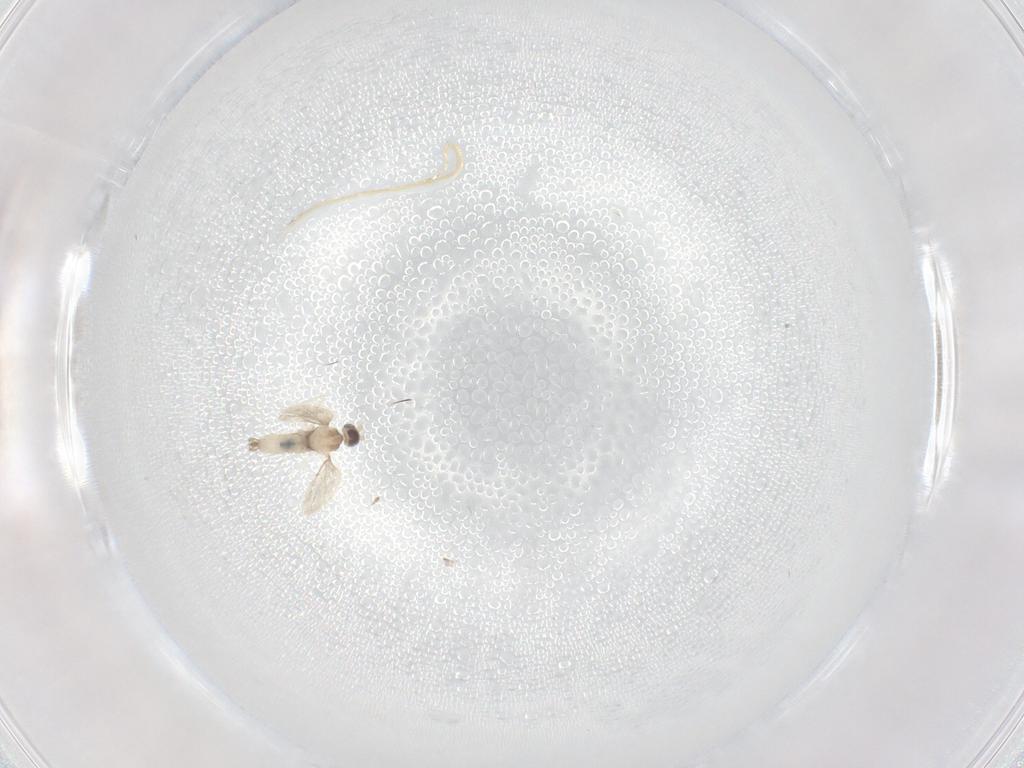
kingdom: Animalia
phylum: Arthropoda
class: Insecta
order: Diptera
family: Cecidomyiidae
